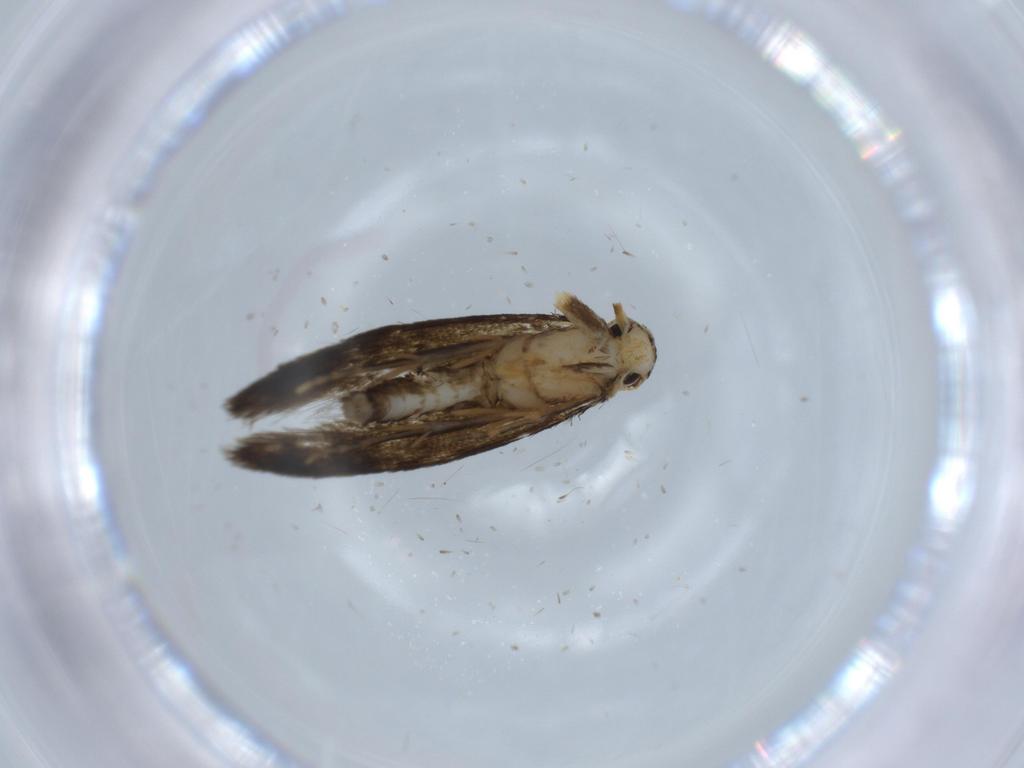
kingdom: Animalia
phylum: Arthropoda
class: Insecta
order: Lepidoptera
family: Tineidae
